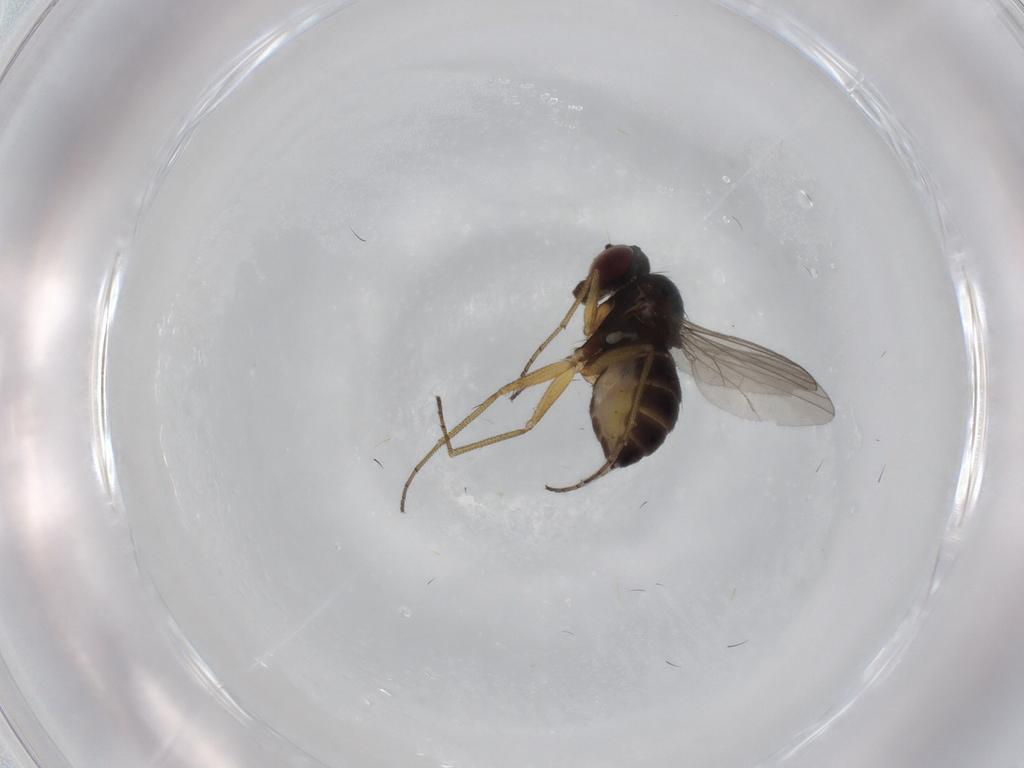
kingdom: Animalia
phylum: Arthropoda
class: Insecta
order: Diptera
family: Dolichopodidae
